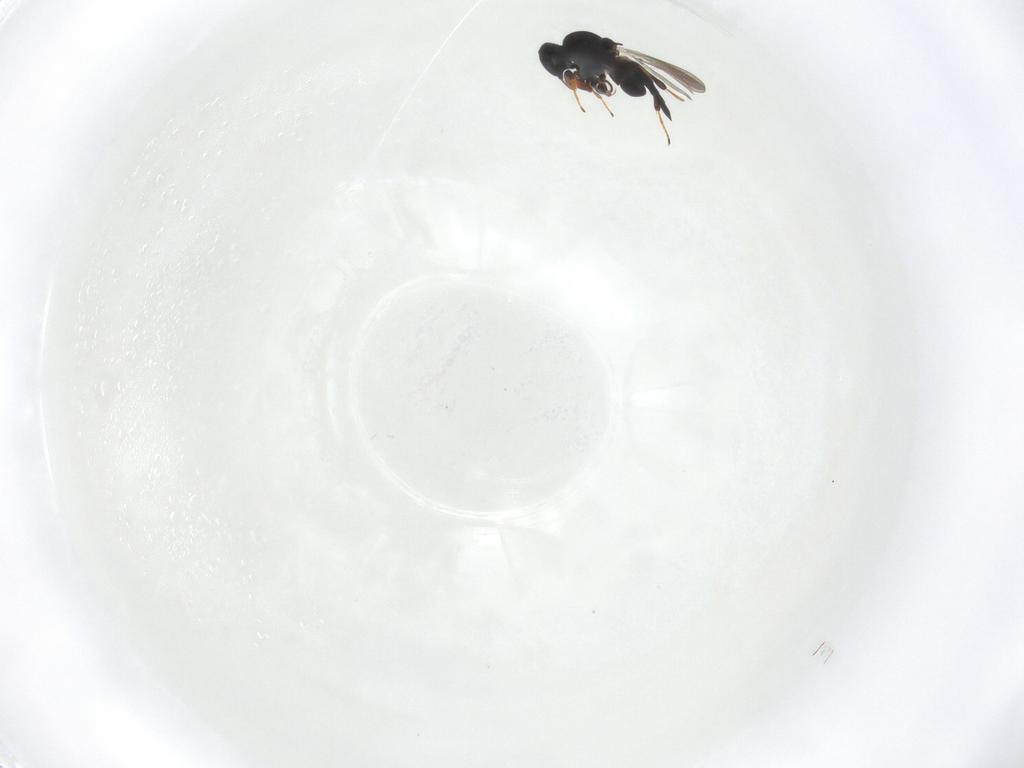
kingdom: Animalia
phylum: Arthropoda
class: Insecta
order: Hymenoptera
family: Platygastridae
